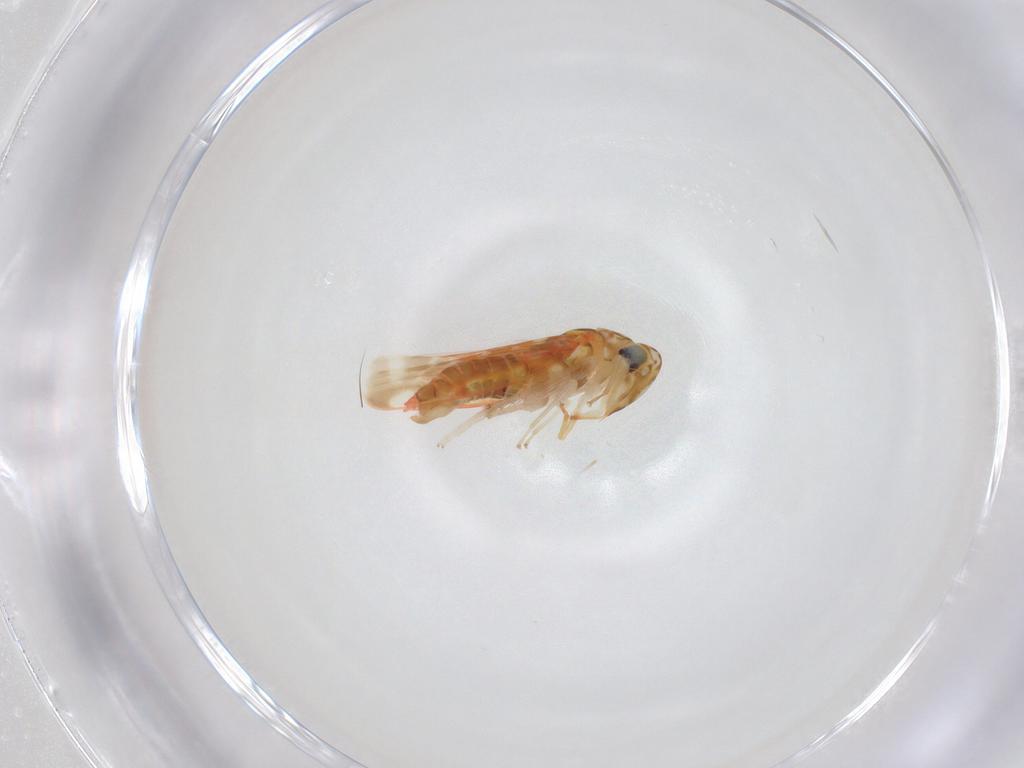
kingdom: Animalia
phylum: Arthropoda
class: Insecta
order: Hemiptera
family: Cicadellidae
